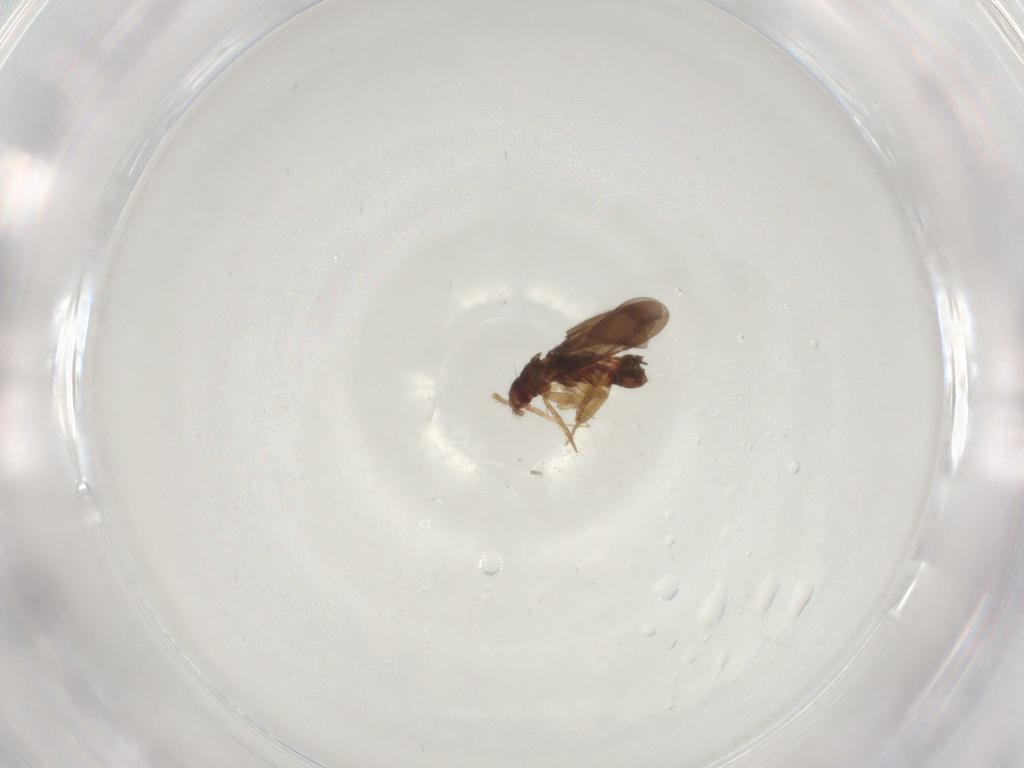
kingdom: Animalia
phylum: Arthropoda
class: Insecta
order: Hemiptera
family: Ceratocombidae
